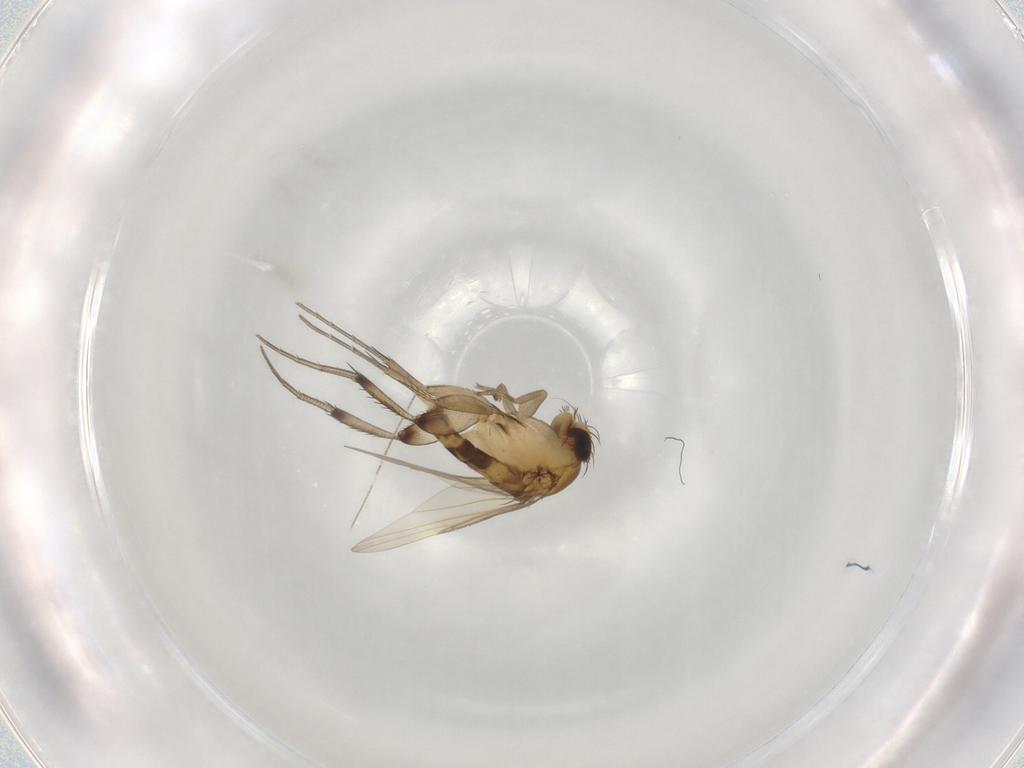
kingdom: Animalia
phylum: Arthropoda
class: Insecta
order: Diptera
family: Phoridae
